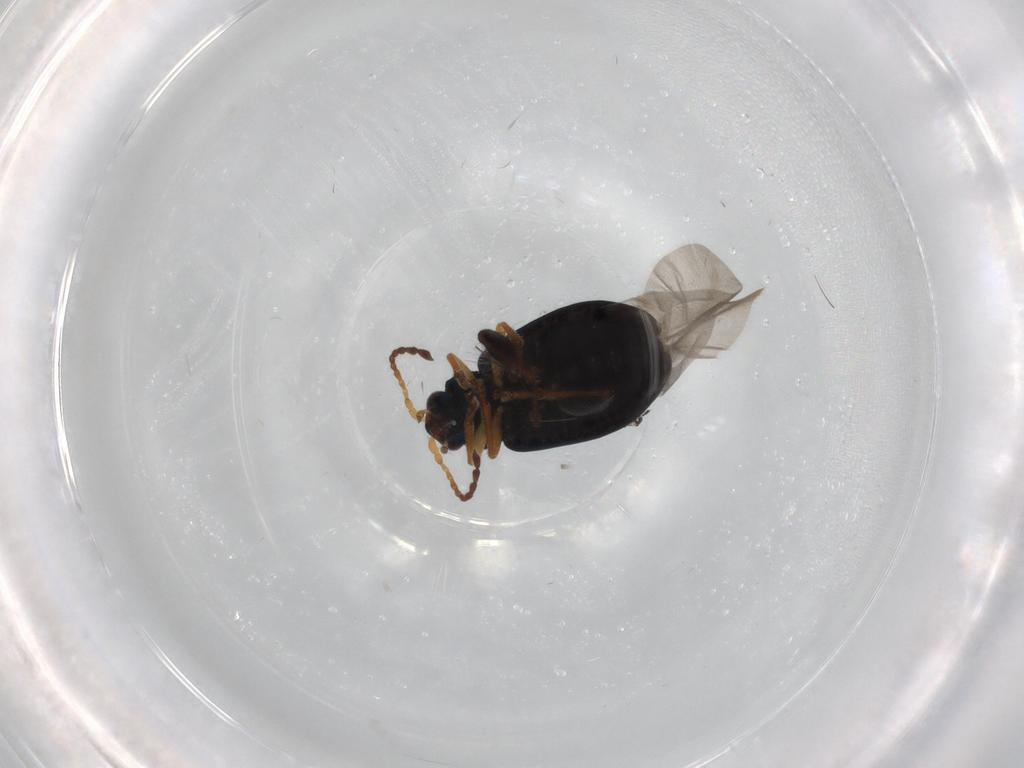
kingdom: Animalia
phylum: Arthropoda
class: Insecta
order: Coleoptera
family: Chrysomelidae
